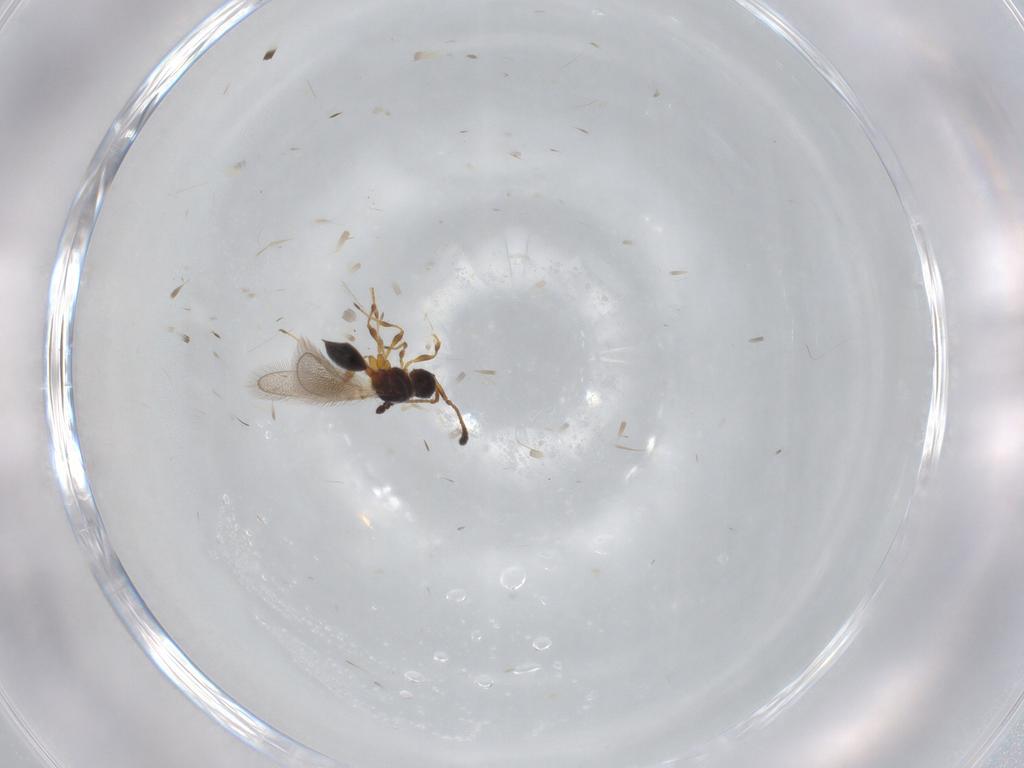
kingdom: Animalia
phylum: Arthropoda
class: Insecta
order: Hymenoptera
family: Diapriidae
